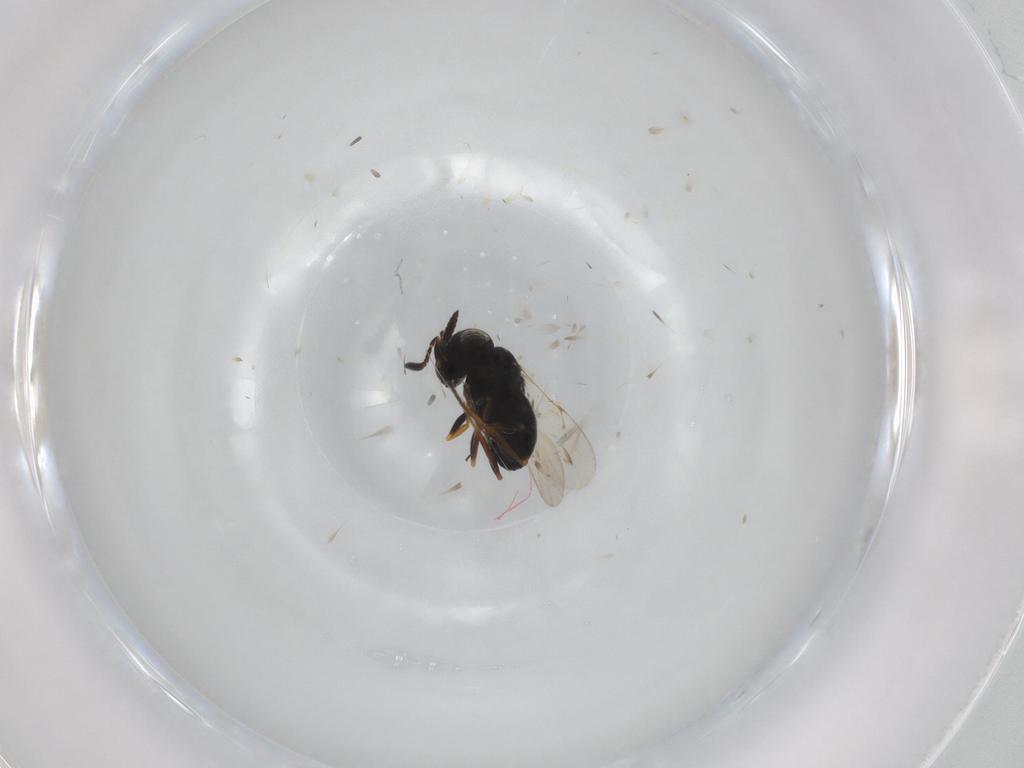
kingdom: Animalia
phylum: Arthropoda
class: Insecta
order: Hymenoptera
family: Scelionidae
